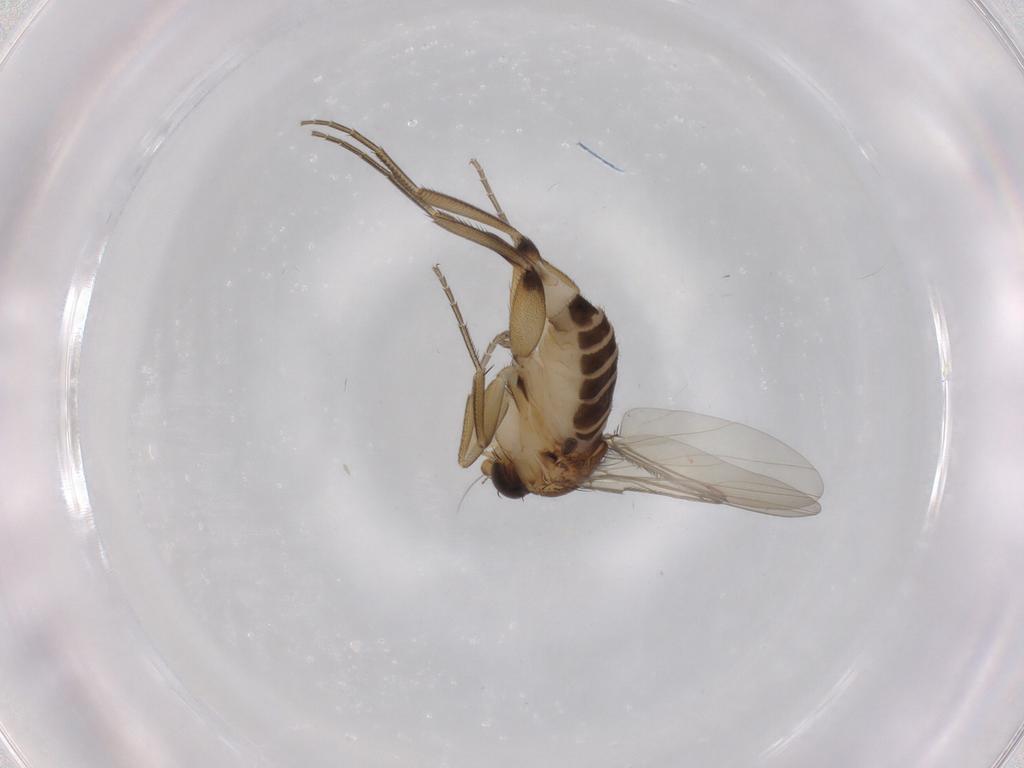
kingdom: Animalia
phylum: Arthropoda
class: Insecta
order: Diptera
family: Phoridae
